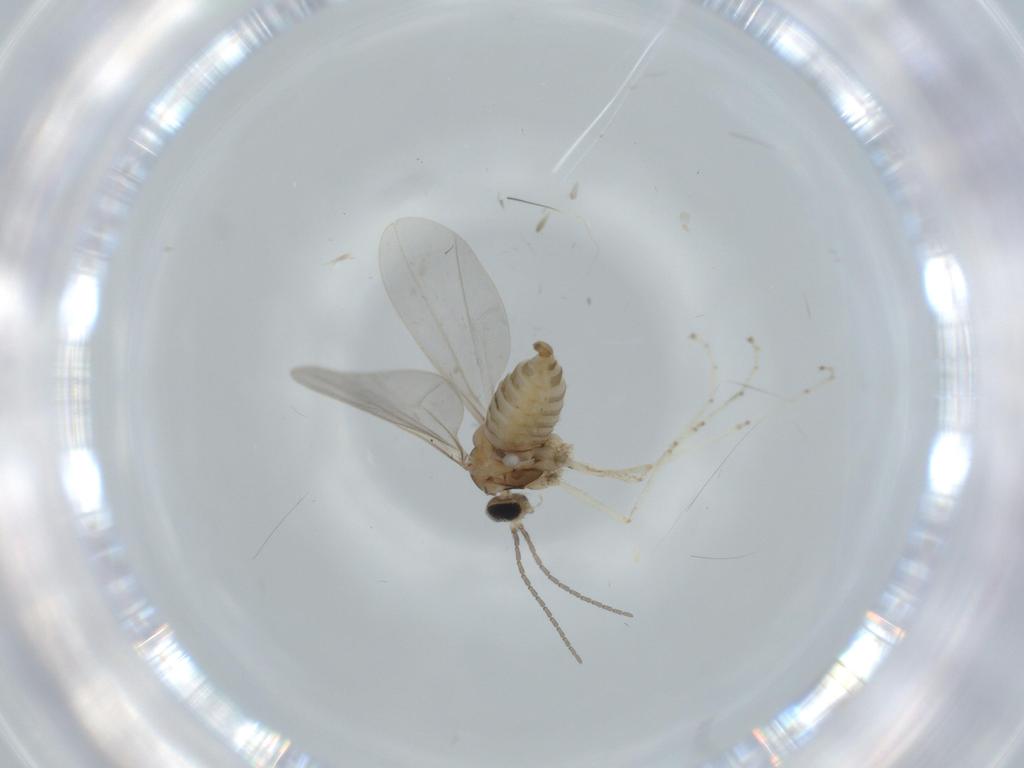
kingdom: Animalia
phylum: Arthropoda
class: Insecta
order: Diptera
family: Cecidomyiidae
